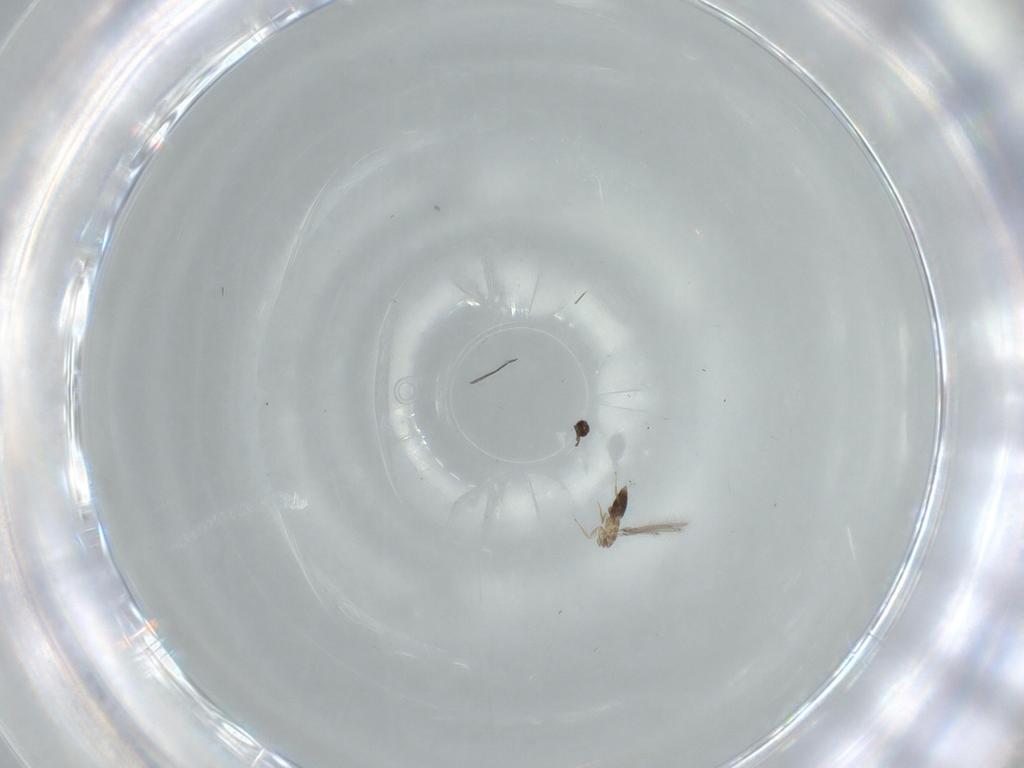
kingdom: Animalia
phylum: Arthropoda
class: Insecta
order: Hymenoptera
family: Mymaridae
